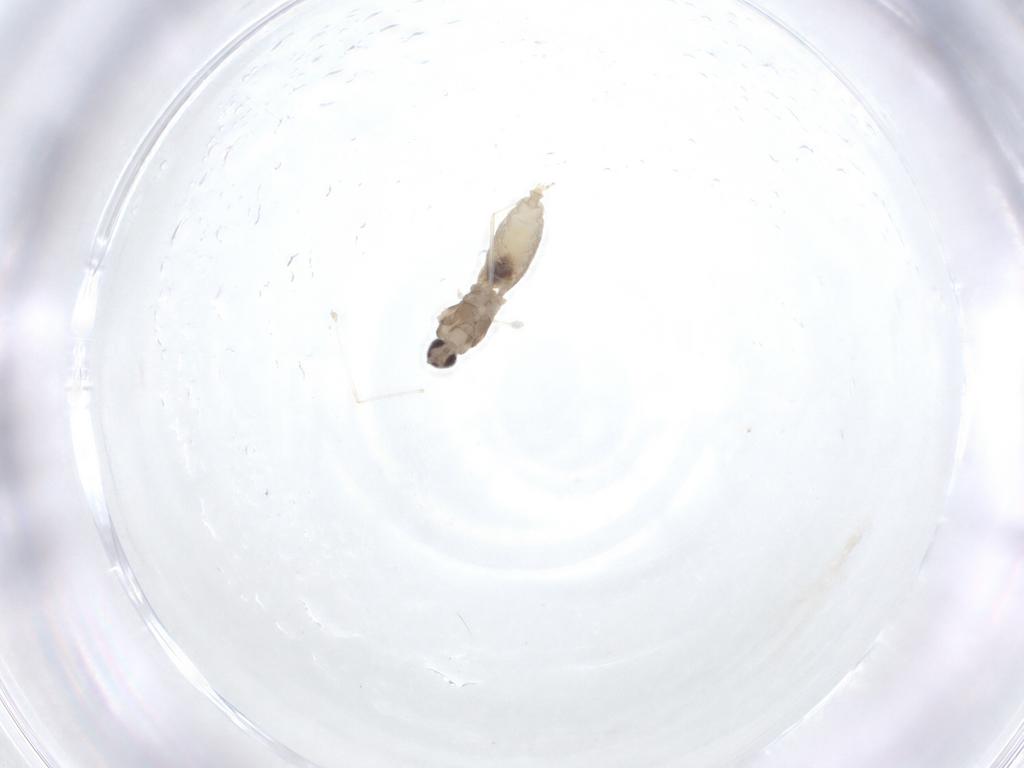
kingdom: Animalia
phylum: Arthropoda
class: Insecta
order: Diptera
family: Cecidomyiidae
